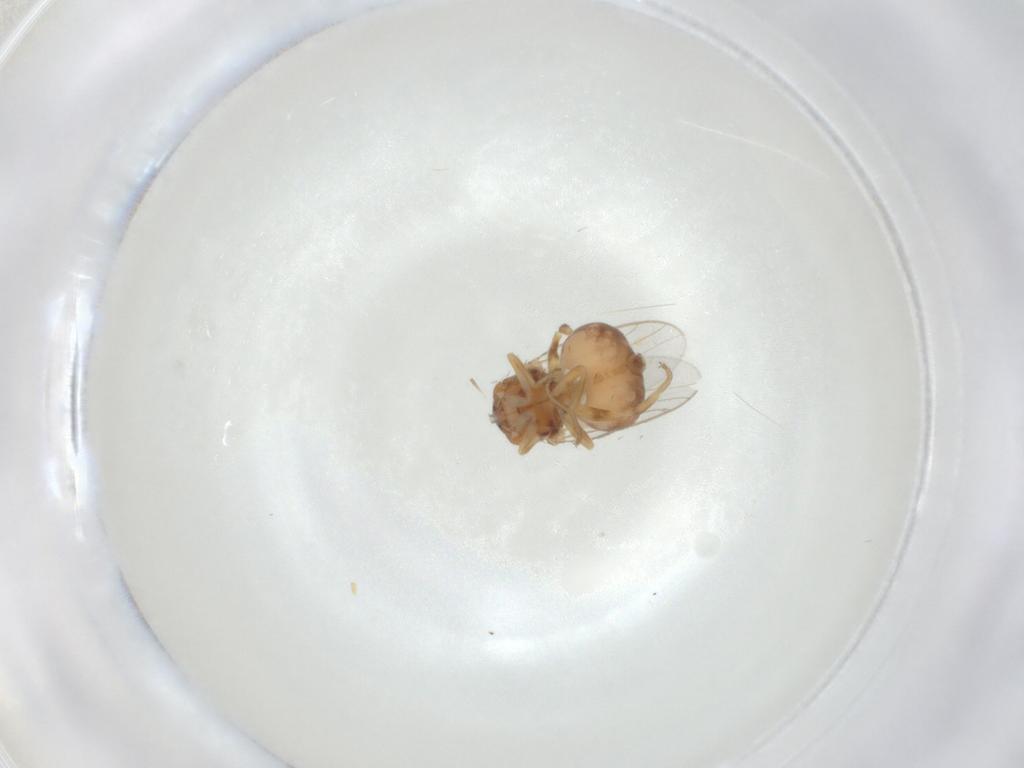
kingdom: Animalia
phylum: Arthropoda
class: Insecta
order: Diptera
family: Chloropidae
